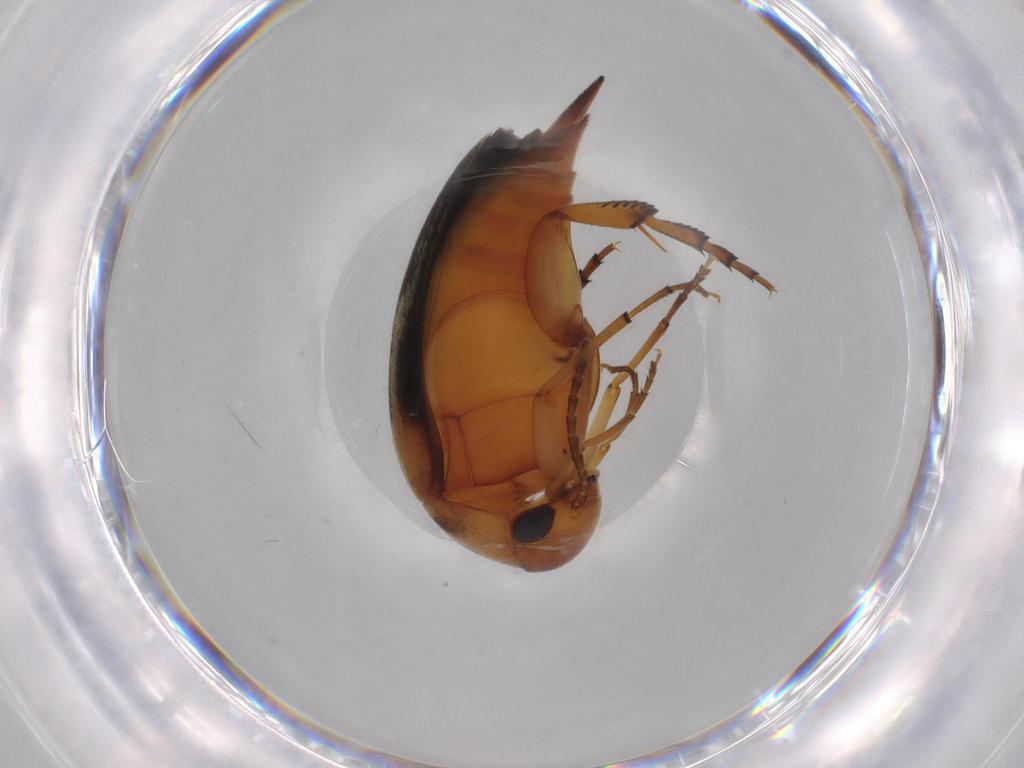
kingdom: Animalia
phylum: Arthropoda
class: Insecta
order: Coleoptera
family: Mordellidae
